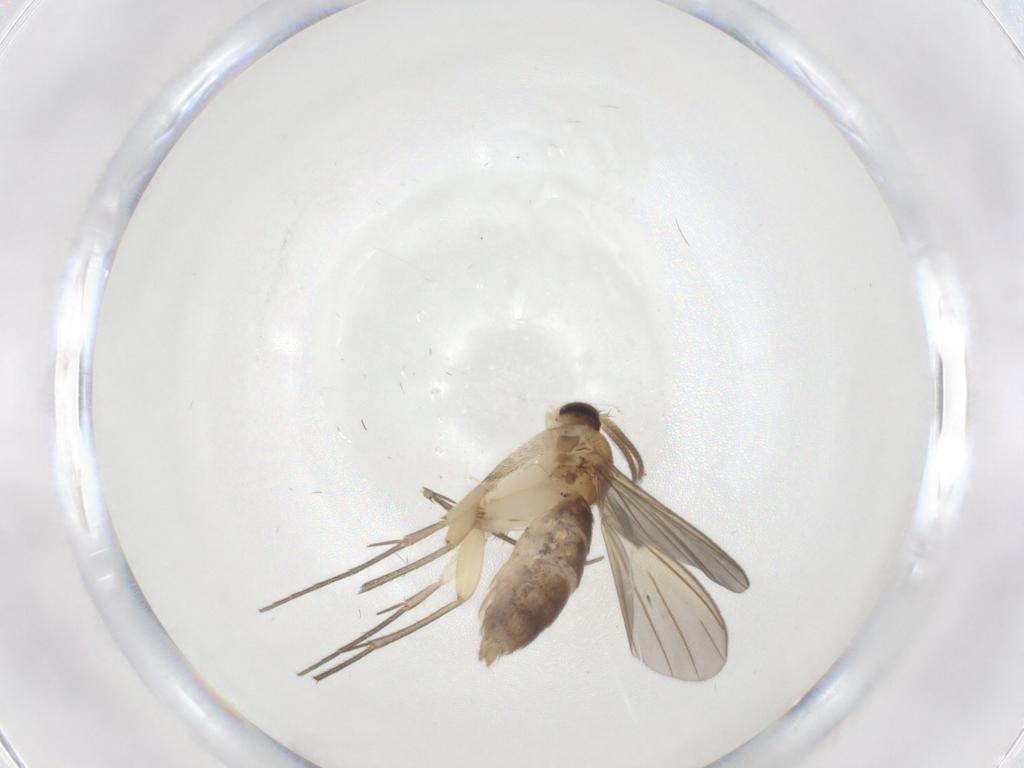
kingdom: Animalia
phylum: Arthropoda
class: Insecta
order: Diptera
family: Mycetophilidae
